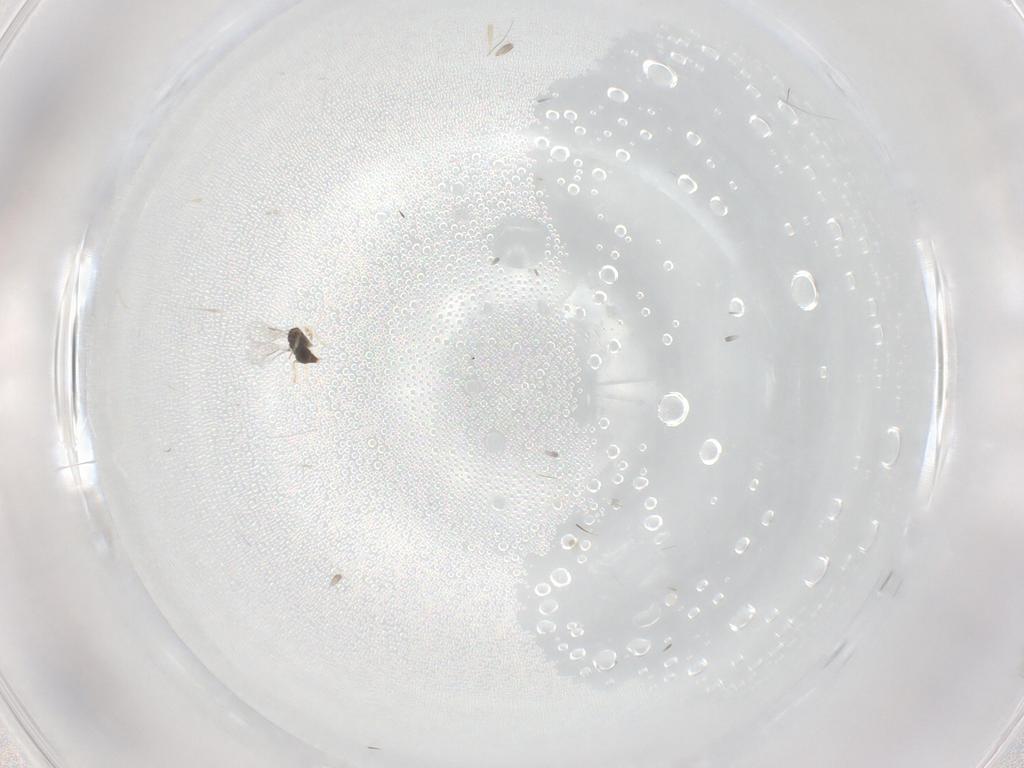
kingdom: Animalia
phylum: Arthropoda
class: Insecta
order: Hymenoptera
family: Aphelinidae
